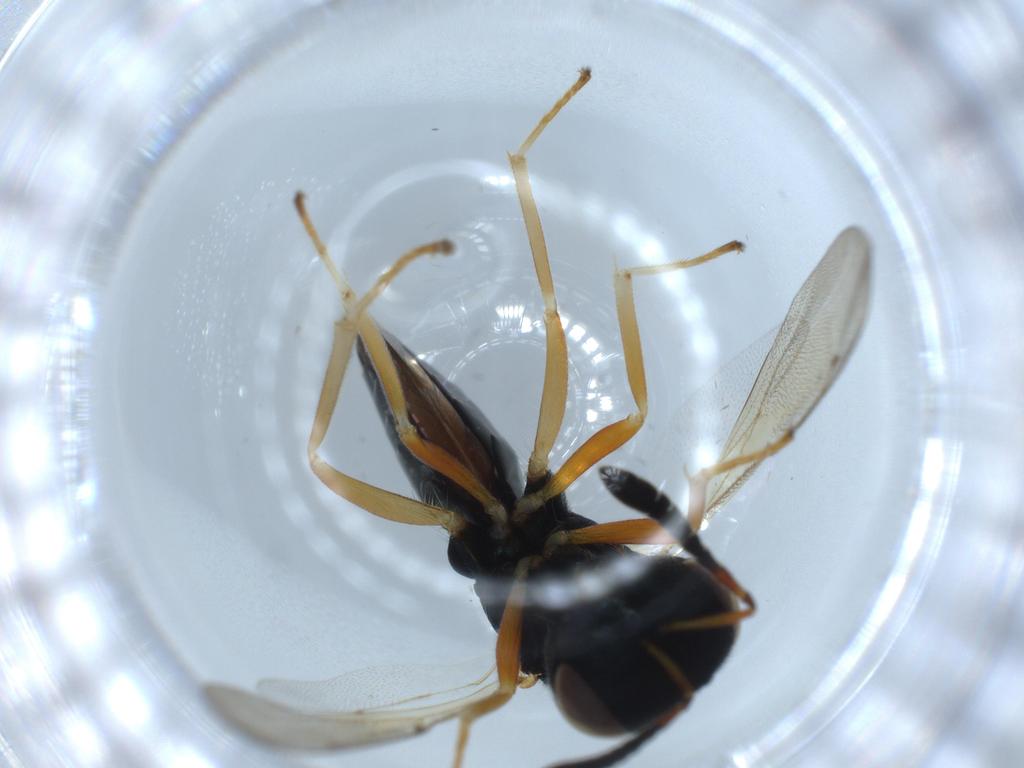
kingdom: Animalia
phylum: Arthropoda
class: Insecta
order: Hymenoptera
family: Pteromalidae
